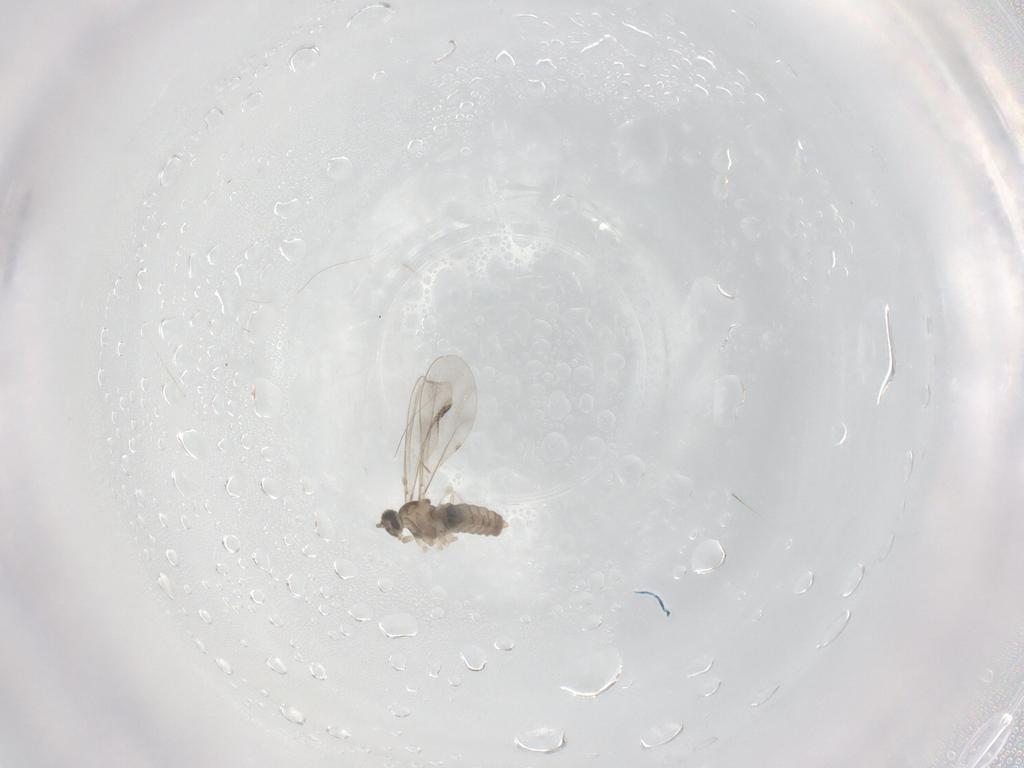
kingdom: Animalia
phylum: Arthropoda
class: Insecta
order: Diptera
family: Cecidomyiidae
